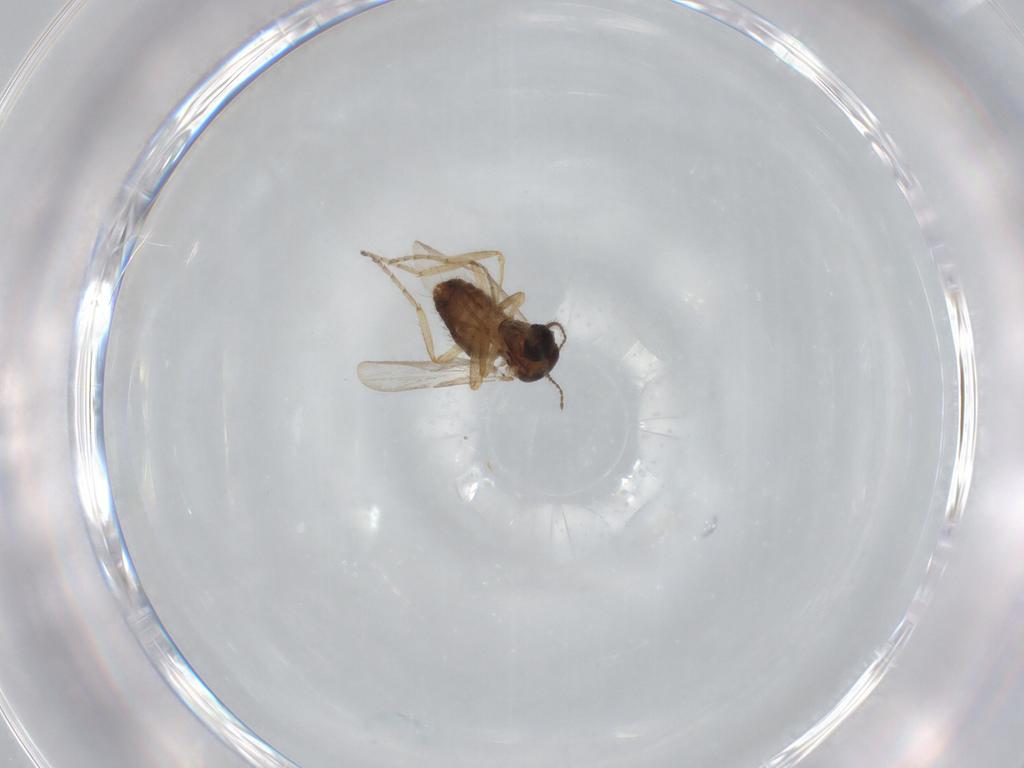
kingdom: Animalia
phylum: Arthropoda
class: Insecta
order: Diptera
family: Ceratopogonidae
